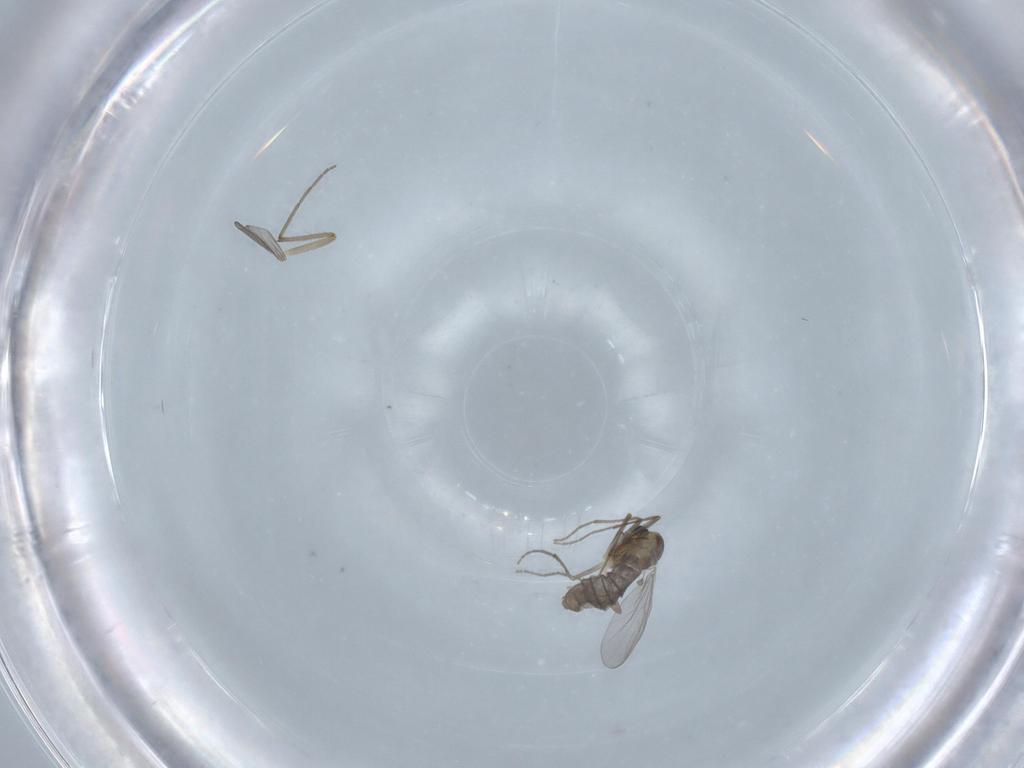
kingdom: Animalia
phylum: Arthropoda
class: Insecta
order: Diptera
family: Chironomidae
